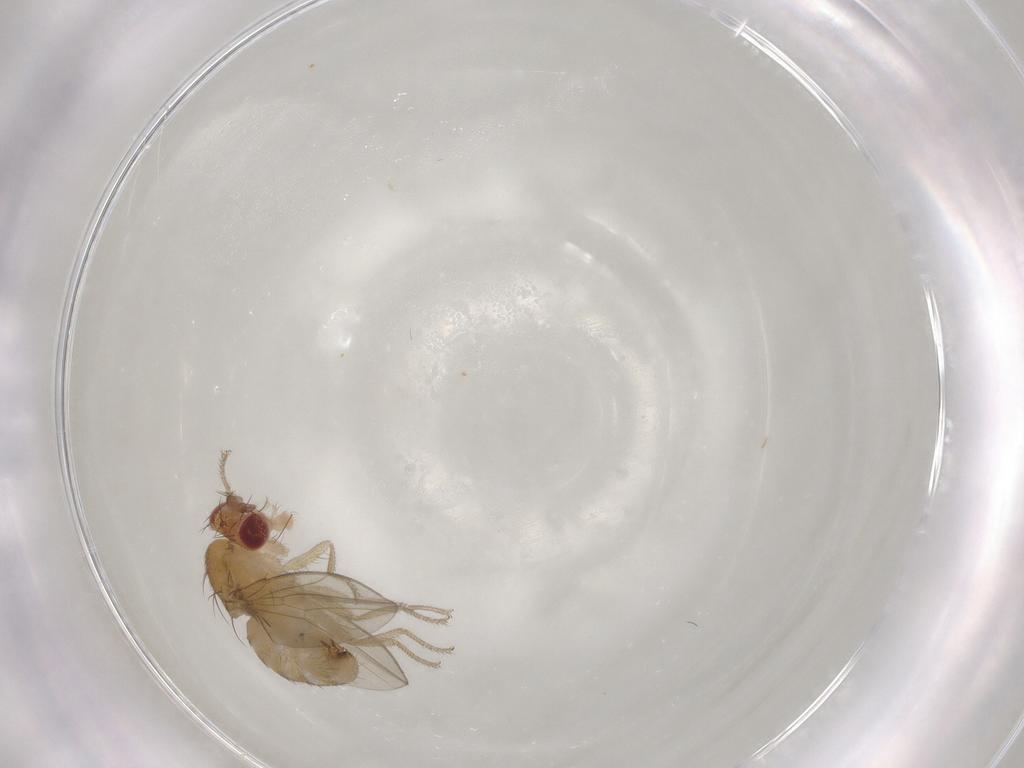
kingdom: Animalia
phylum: Arthropoda
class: Insecta
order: Diptera
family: Drosophilidae
